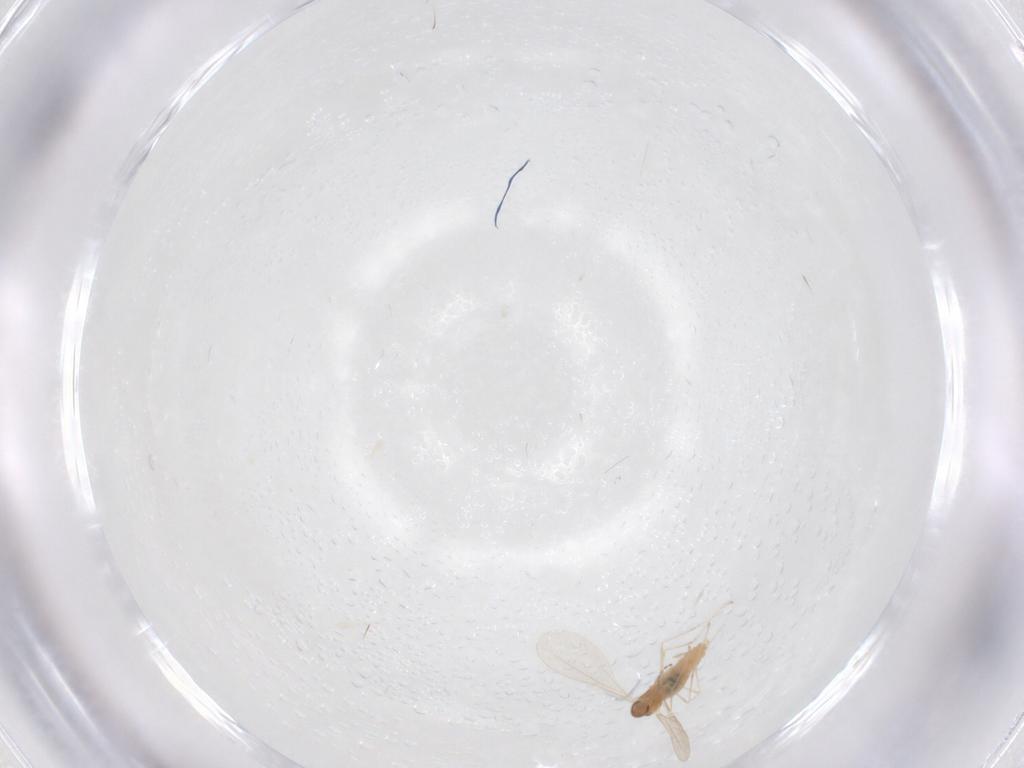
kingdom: Animalia
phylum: Arthropoda
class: Insecta
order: Diptera
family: Cecidomyiidae
